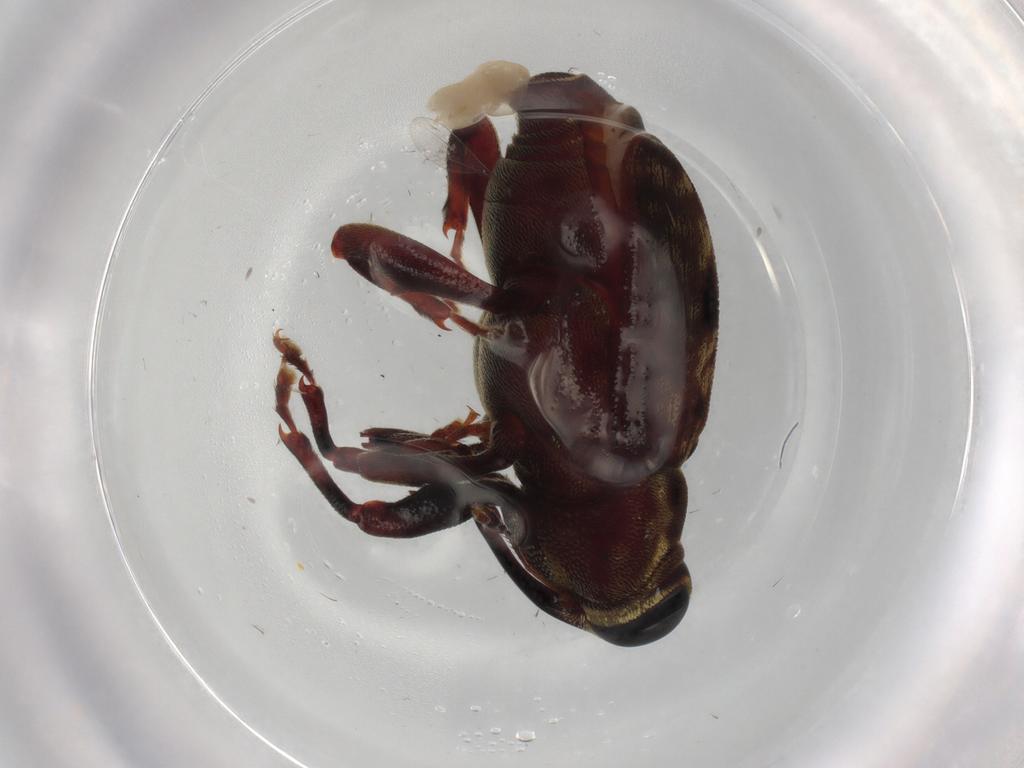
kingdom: Animalia
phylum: Arthropoda
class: Insecta
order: Coleoptera
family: Curculionidae
